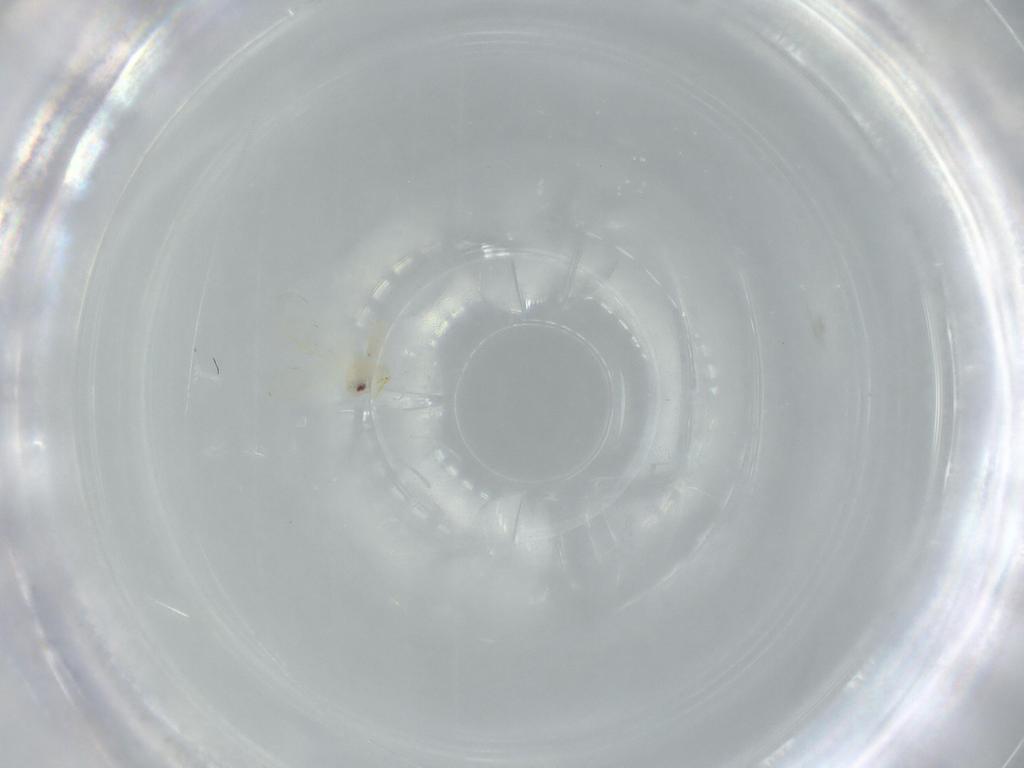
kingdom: Animalia
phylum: Arthropoda
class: Insecta
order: Hemiptera
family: Aleyrodidae
